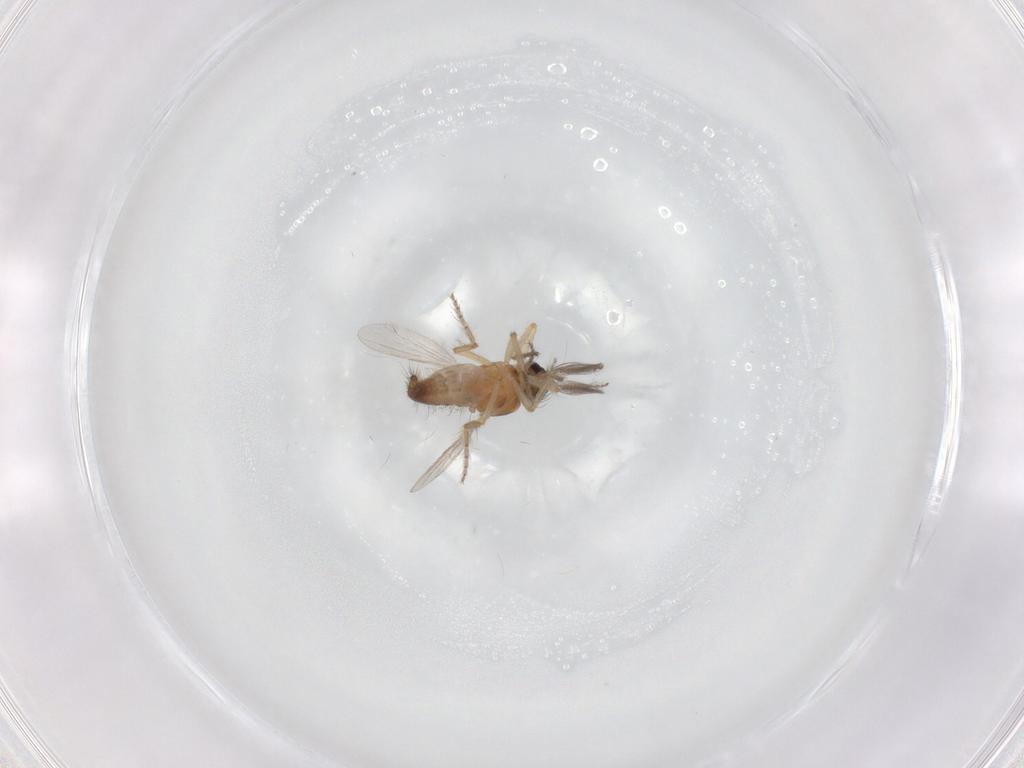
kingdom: Animalia
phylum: Arthropoda
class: Insecta
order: Diptera
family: Ceratopogonidae
